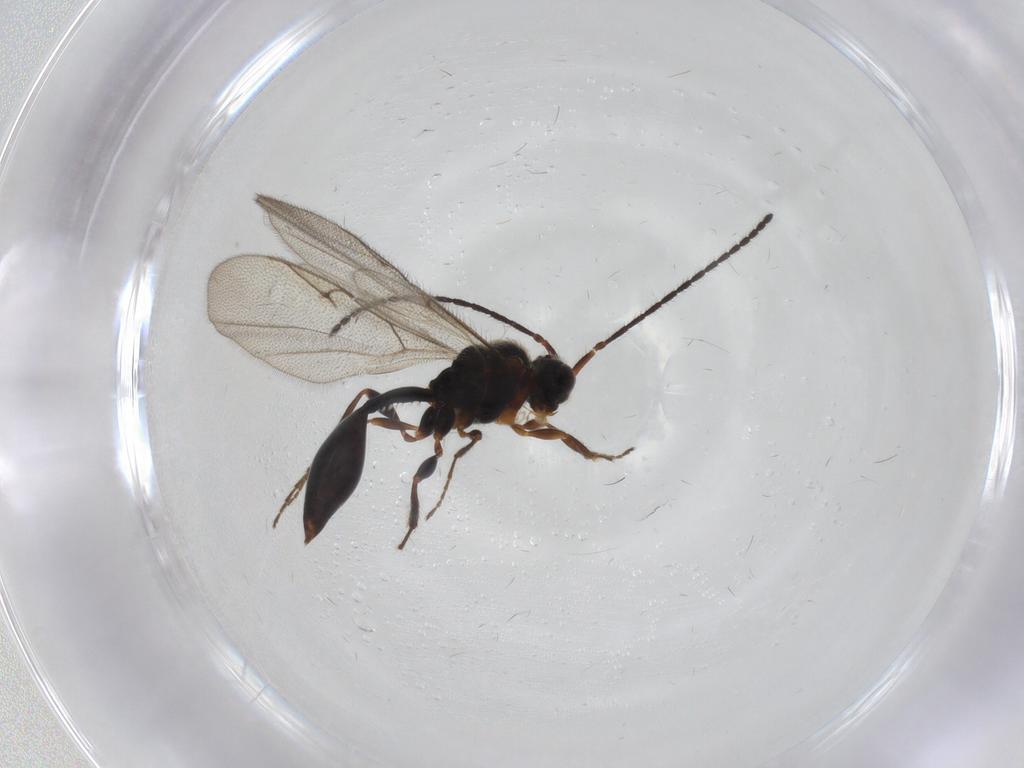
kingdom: Animalia
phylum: Arthropoda
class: Insecta
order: Hymenoptera
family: Diapriidae
